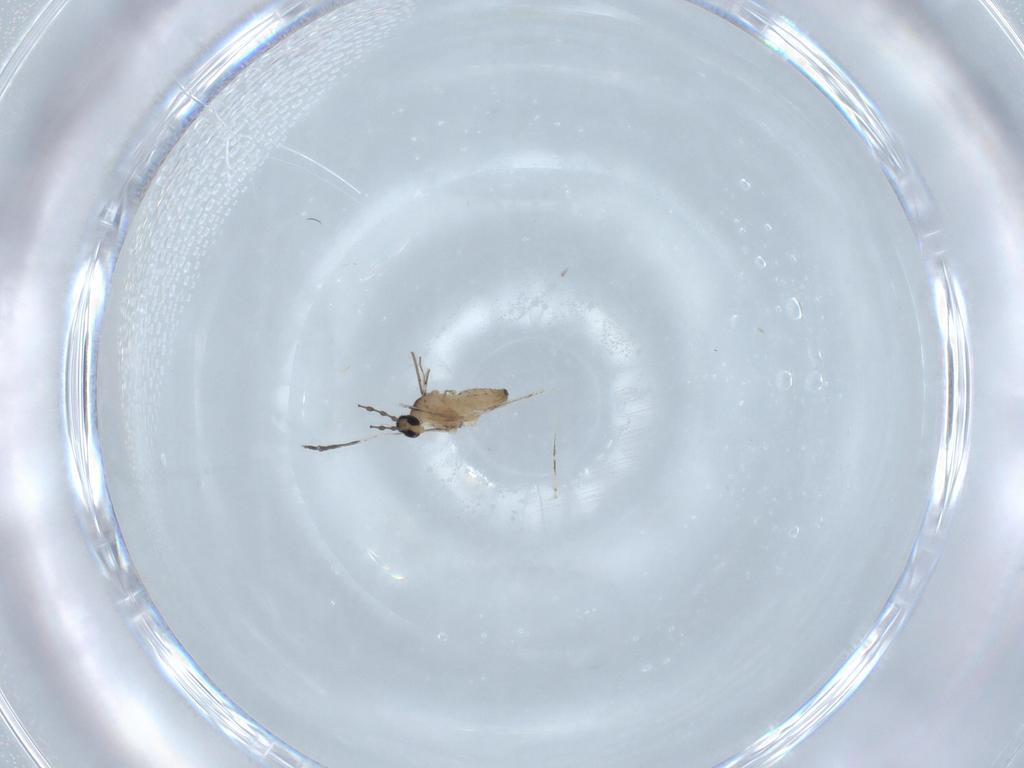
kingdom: Animalia
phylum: Arthropoda
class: Insecta
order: Diptera
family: Cecidomyiidae
